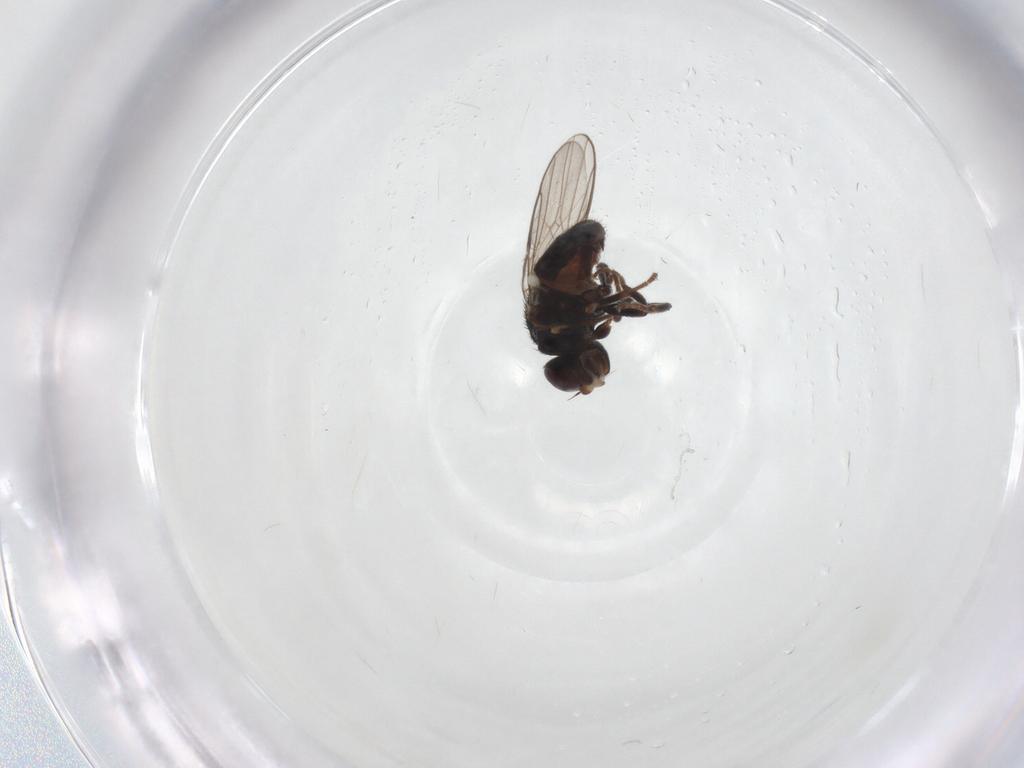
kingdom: Animalia
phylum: Arthropoda
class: Insecta
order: Diptera
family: Chloropidae
